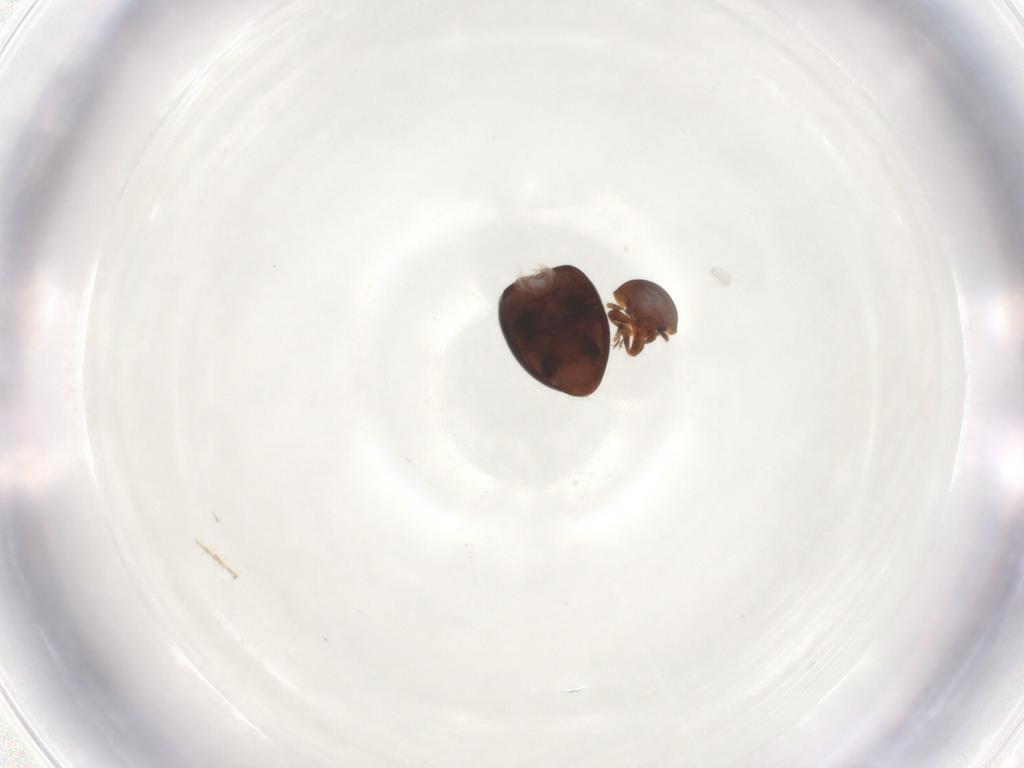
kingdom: Animalia
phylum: Arthropoda
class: Insecta
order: Coleoptera
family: Coccinellidae
